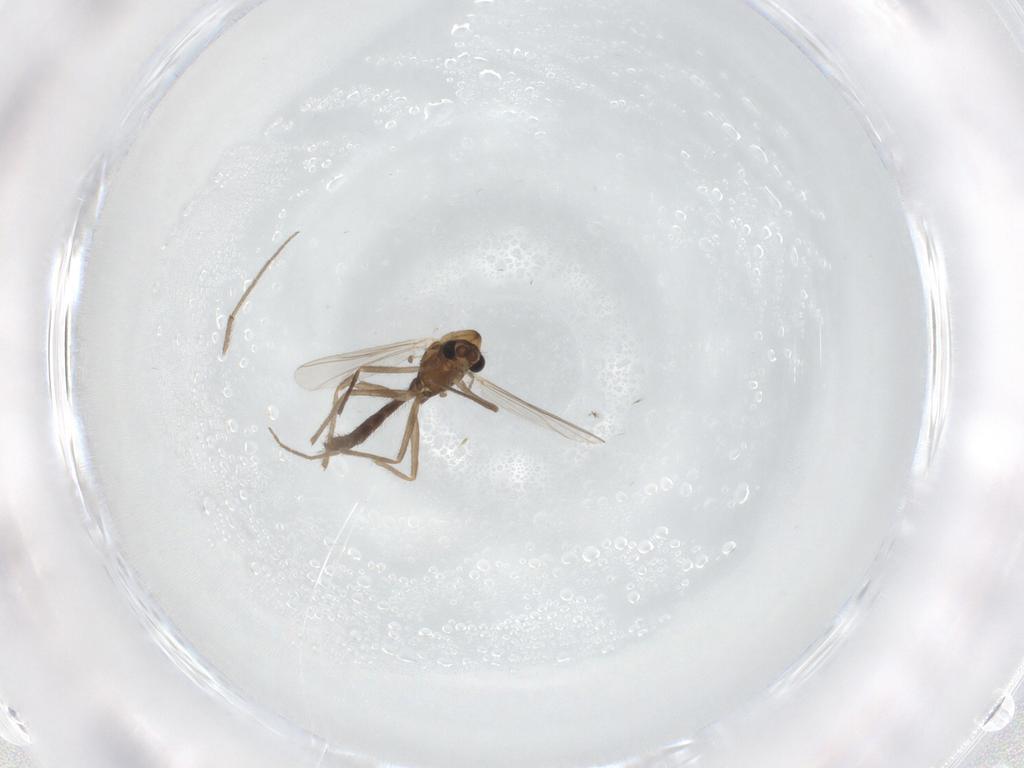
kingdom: Animalia
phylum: Arthropoda
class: Insecta
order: Diptera
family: Chironomidae
